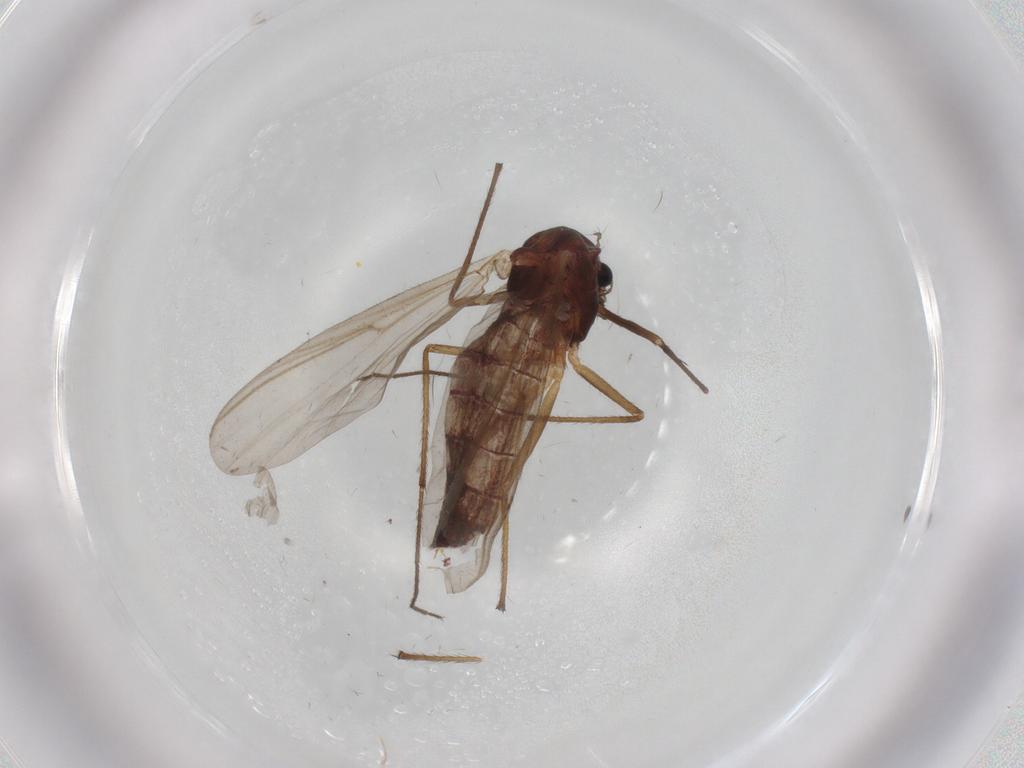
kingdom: Animalia
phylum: Arthropoda
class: Insecta
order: Diptera
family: Chironomidae
